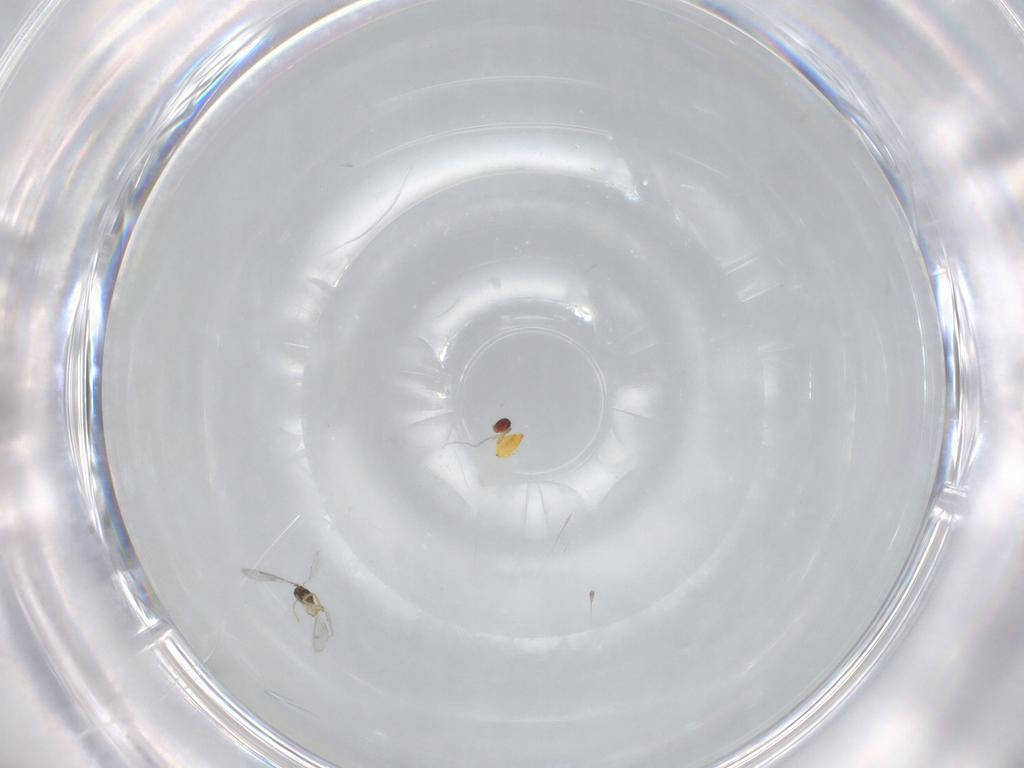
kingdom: Animalia
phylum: Arthropoda
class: Insecta
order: Hymenoptera
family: Eulophidae
